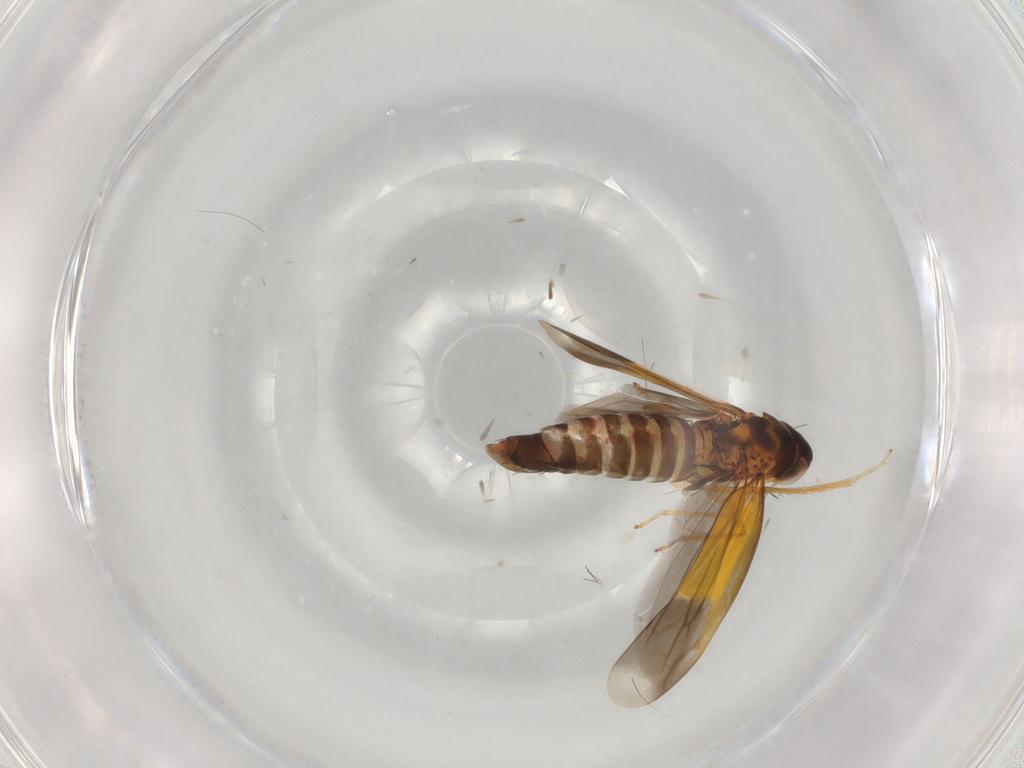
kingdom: Animalia
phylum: Arthropoda
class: Insecta
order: Hemiptera
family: Cicadellidae
